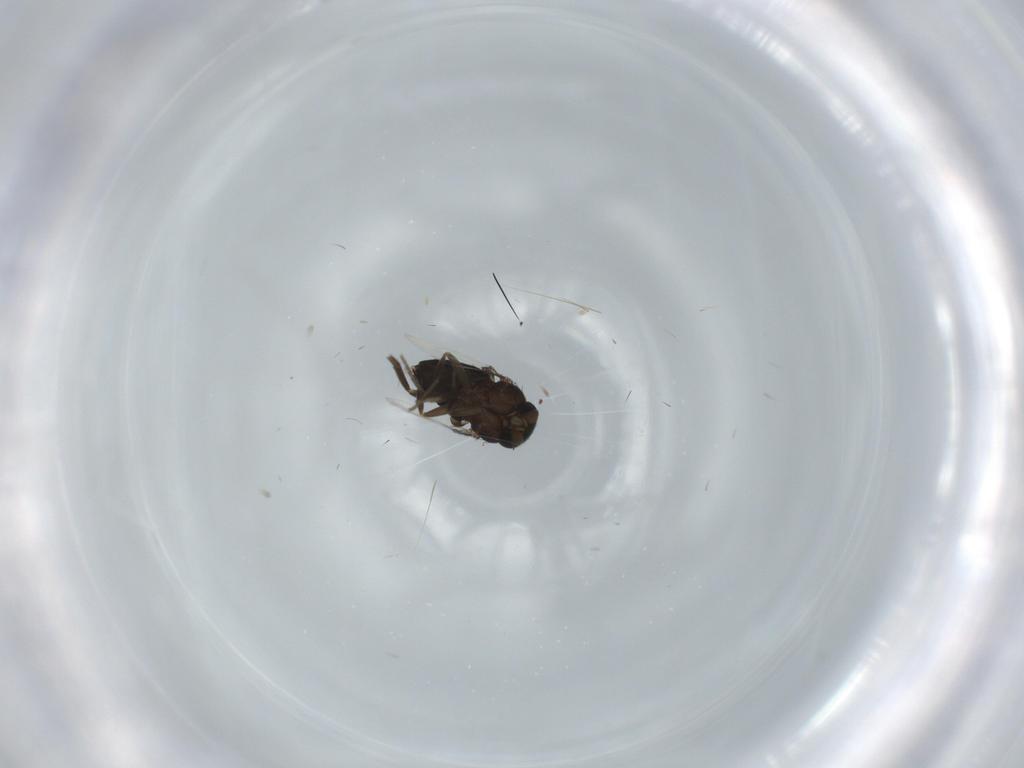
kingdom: Animalia
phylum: Arthropoda
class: Insecta
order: Diptera
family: Phoridae
